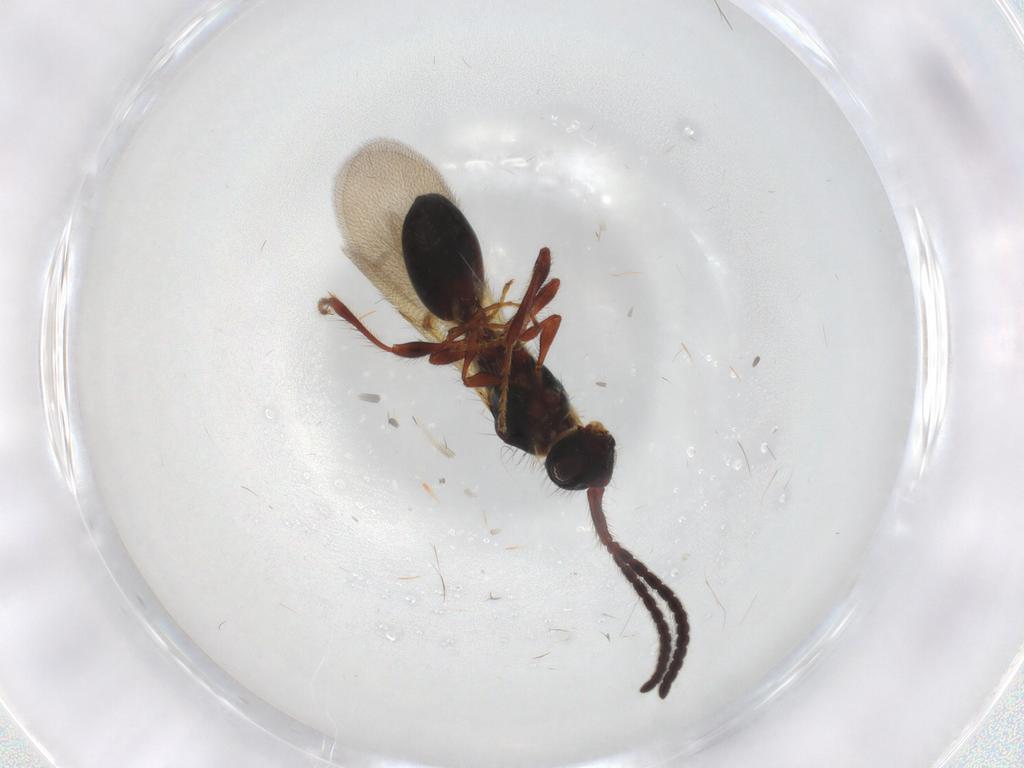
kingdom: Animalia
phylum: Arthropoda
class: Insecta
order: Hymenoptera
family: Diapriidae
